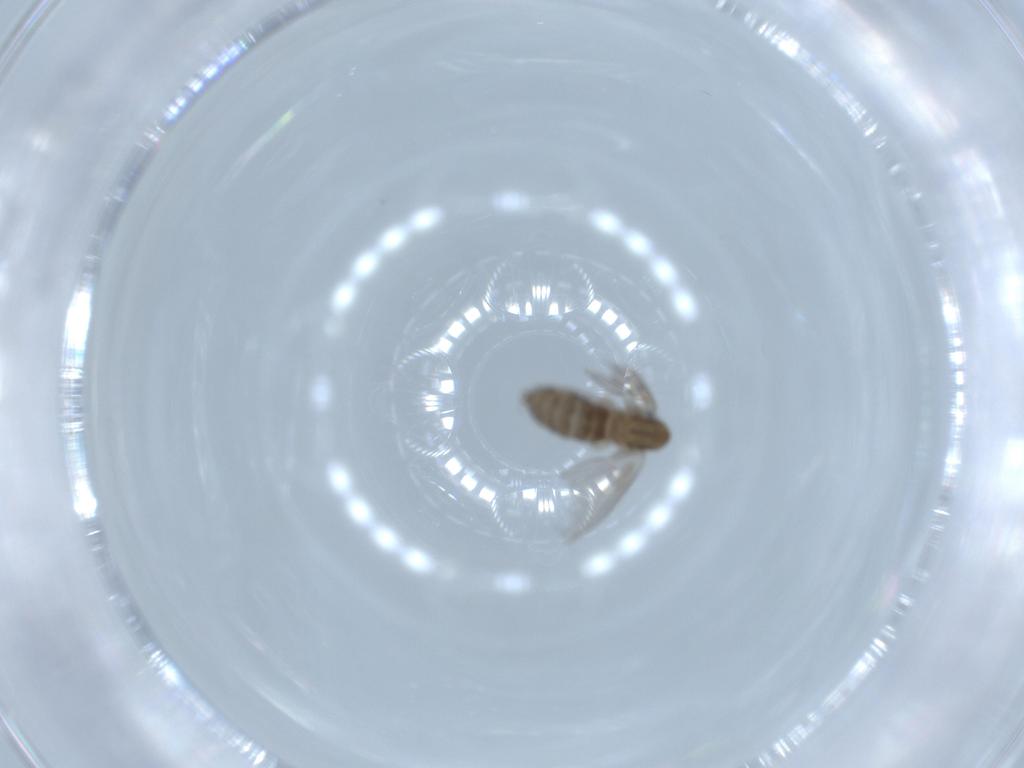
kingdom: Animalia
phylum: Arthropoda
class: Insecta
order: Diptera
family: Psychodidae
